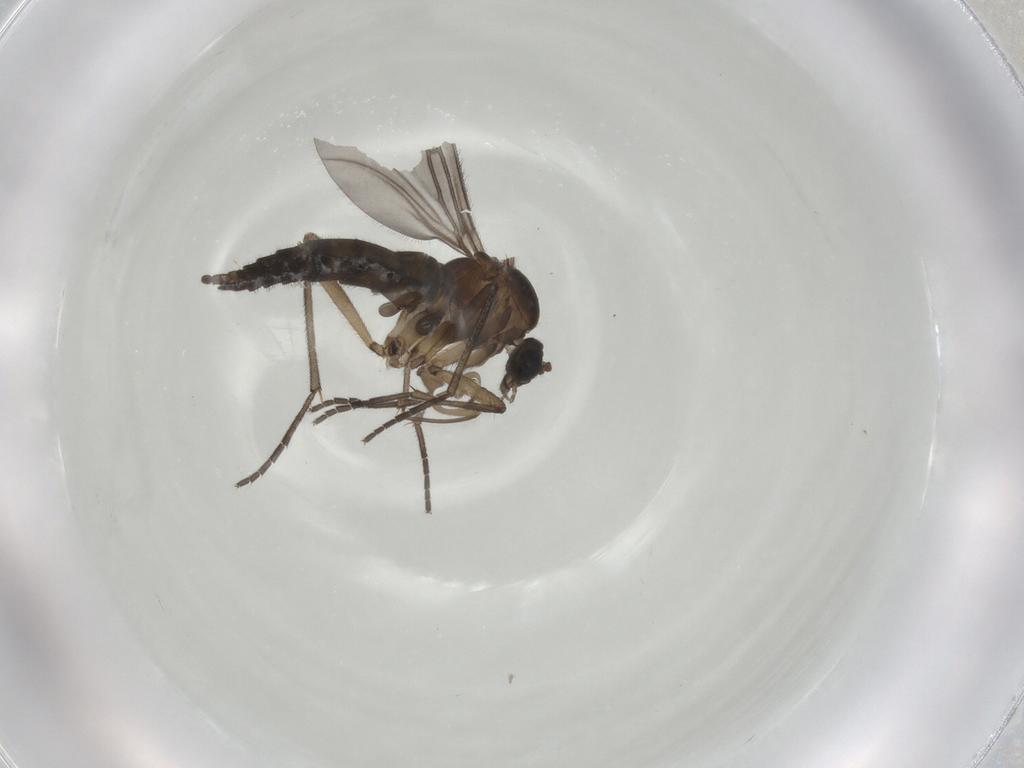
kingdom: Animalia
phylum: Arthropoda
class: Insecta
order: Diptera
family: Sciaridae
